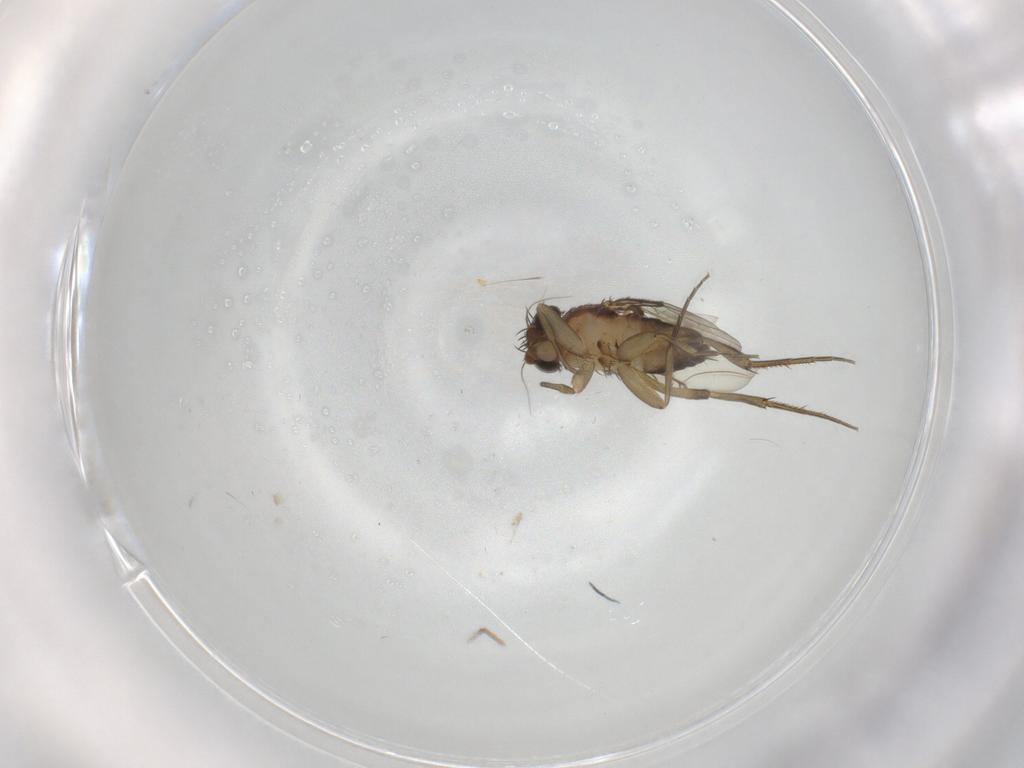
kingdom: Animalia
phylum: Arthropoda
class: Insecta
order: Diptera
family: Phoridae
